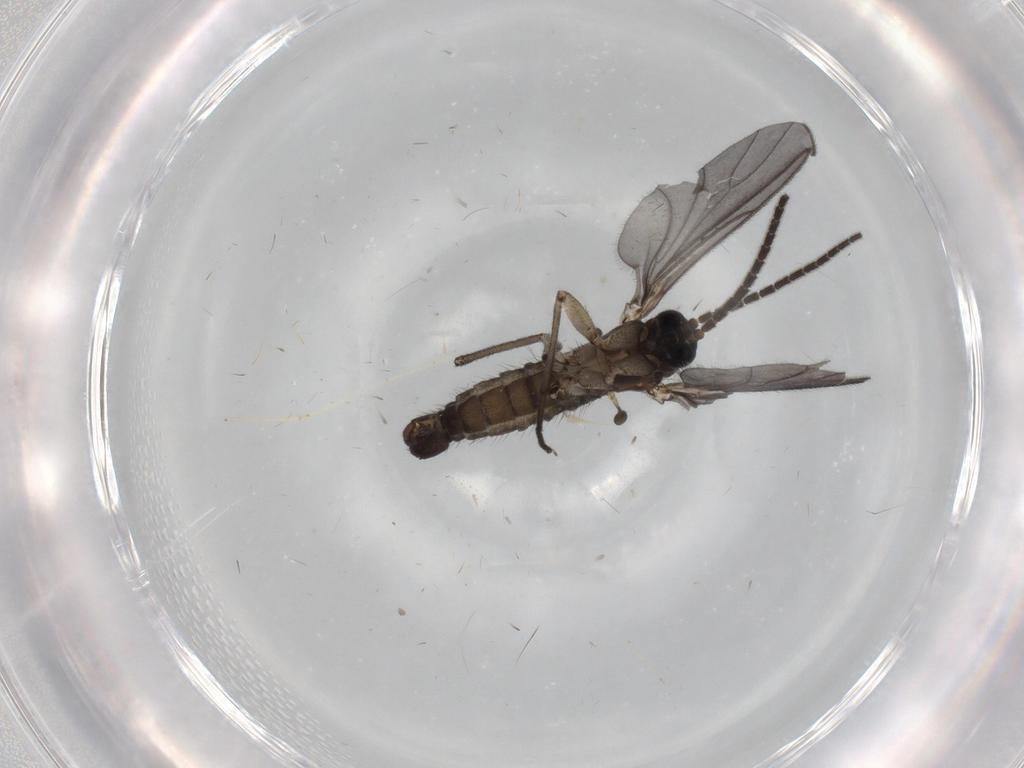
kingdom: Animalia
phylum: Arthropoda
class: Insecta
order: Diptera
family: Sciaridae
